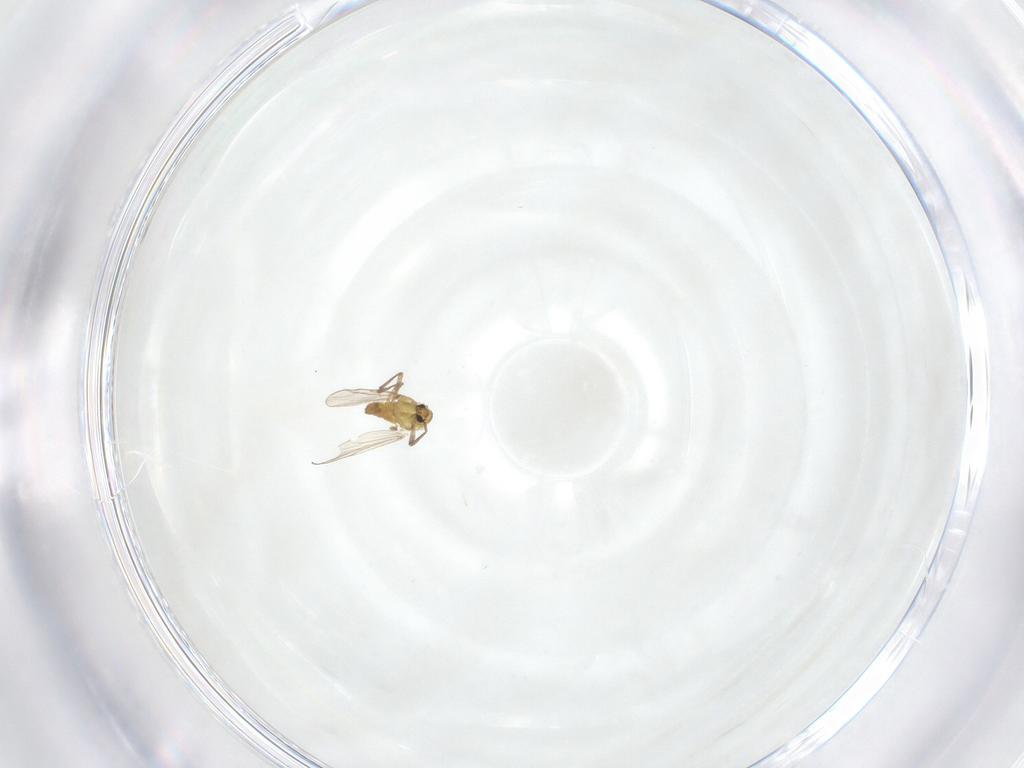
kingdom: Animalia
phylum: Arthropoda
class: Insecta
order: Diptera
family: Chironomidae
